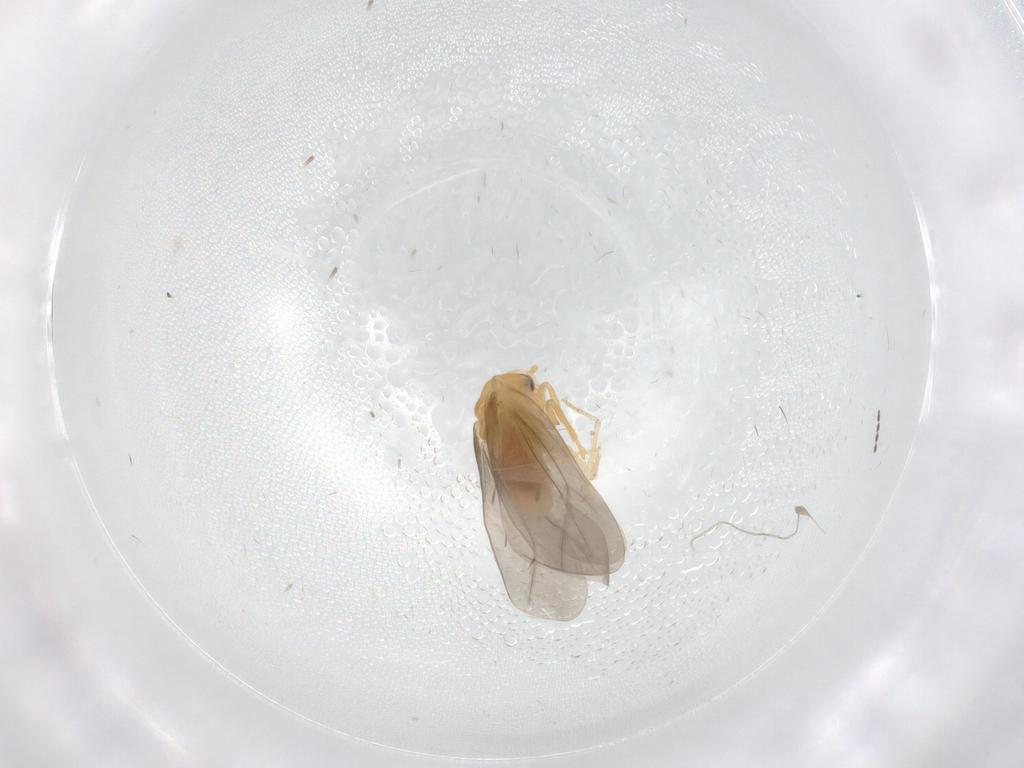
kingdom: Animalia
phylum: Arthropoda
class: Insecta
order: Hemiptera
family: Aleyrodidae
